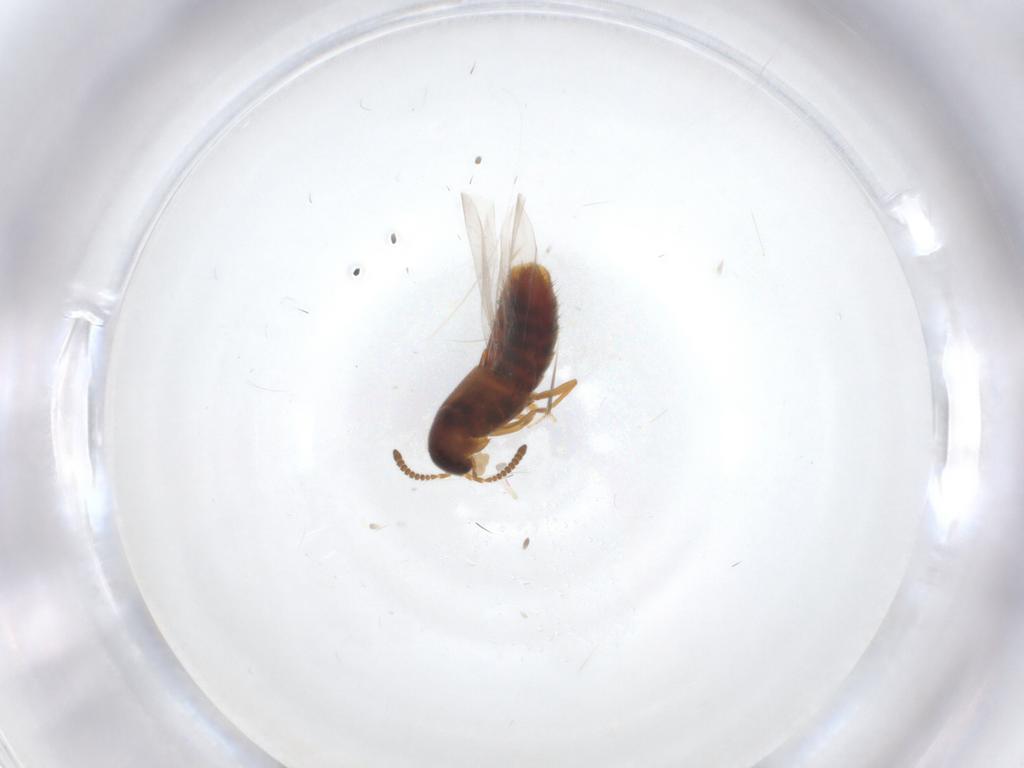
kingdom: Animalia
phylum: Arthropoda
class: Insecta
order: Coleoptera
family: Staphylinidae
